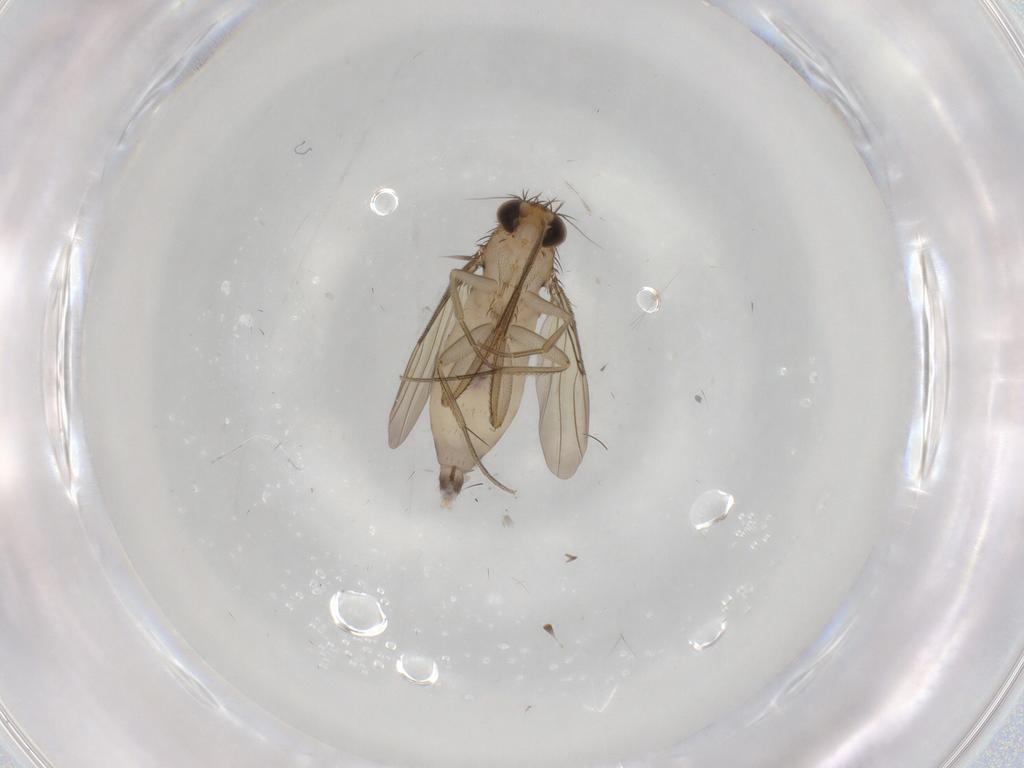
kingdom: Animalia
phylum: Arthropoda
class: Insecta
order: Diptera
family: Phoridae
